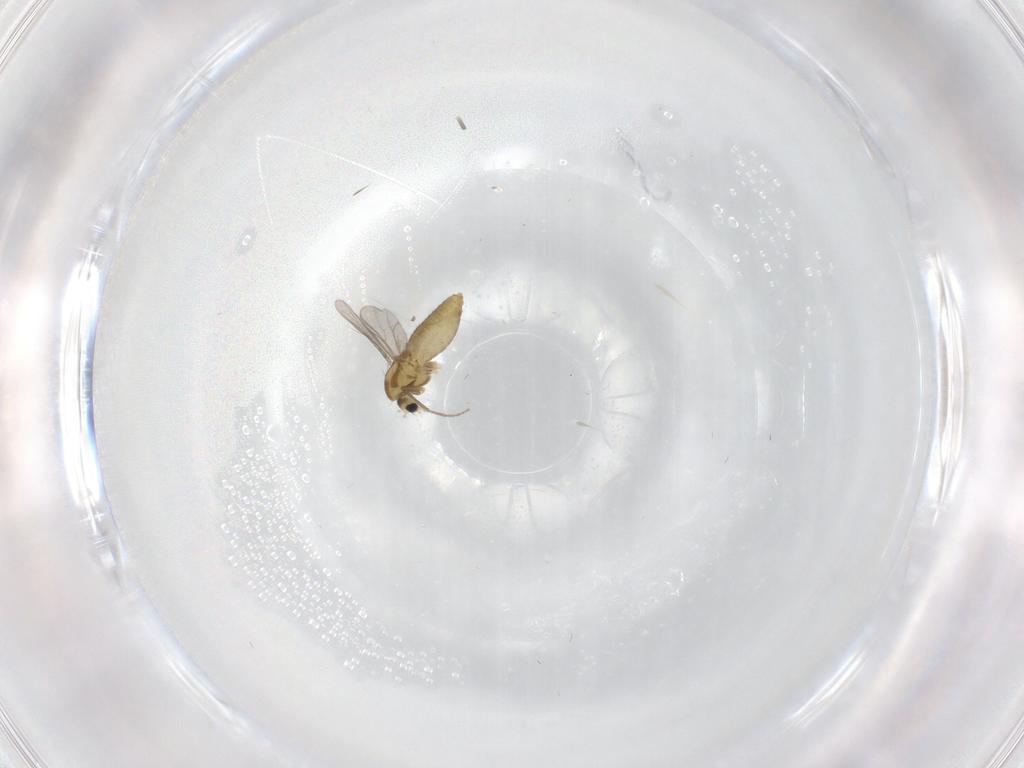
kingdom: Animalia
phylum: Arthropoda
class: Insecta
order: Diptera
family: Chironomidae
